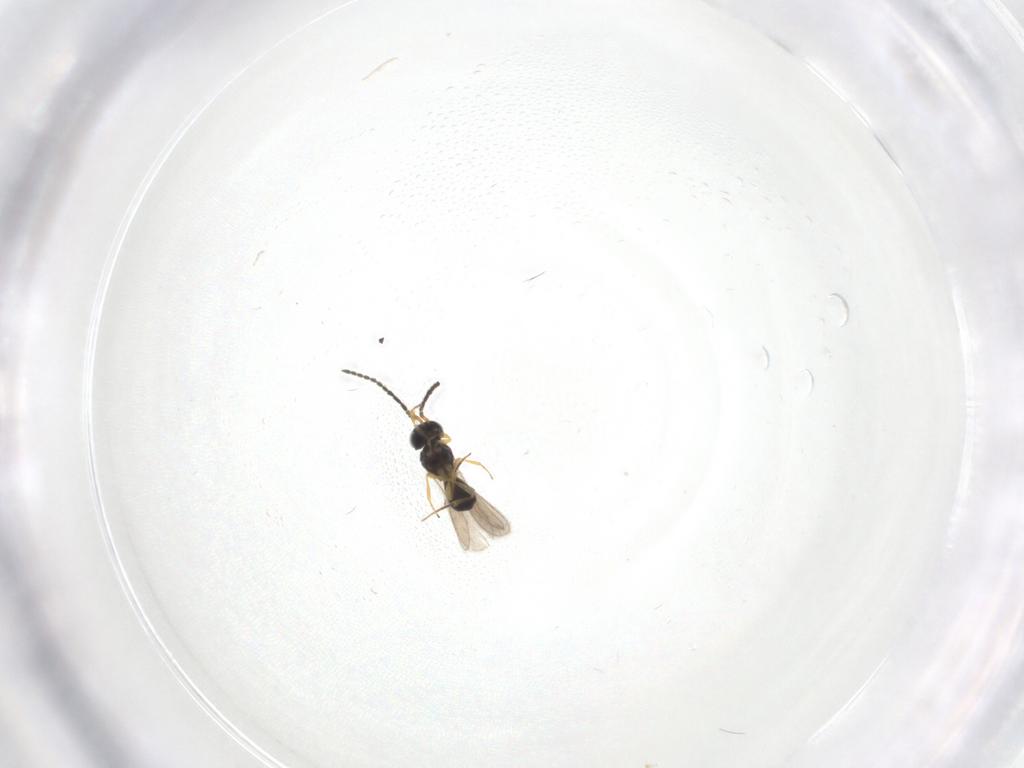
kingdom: Animalia
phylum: Arthropoda
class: Insecta
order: Hymenoptera
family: Scelionidae
